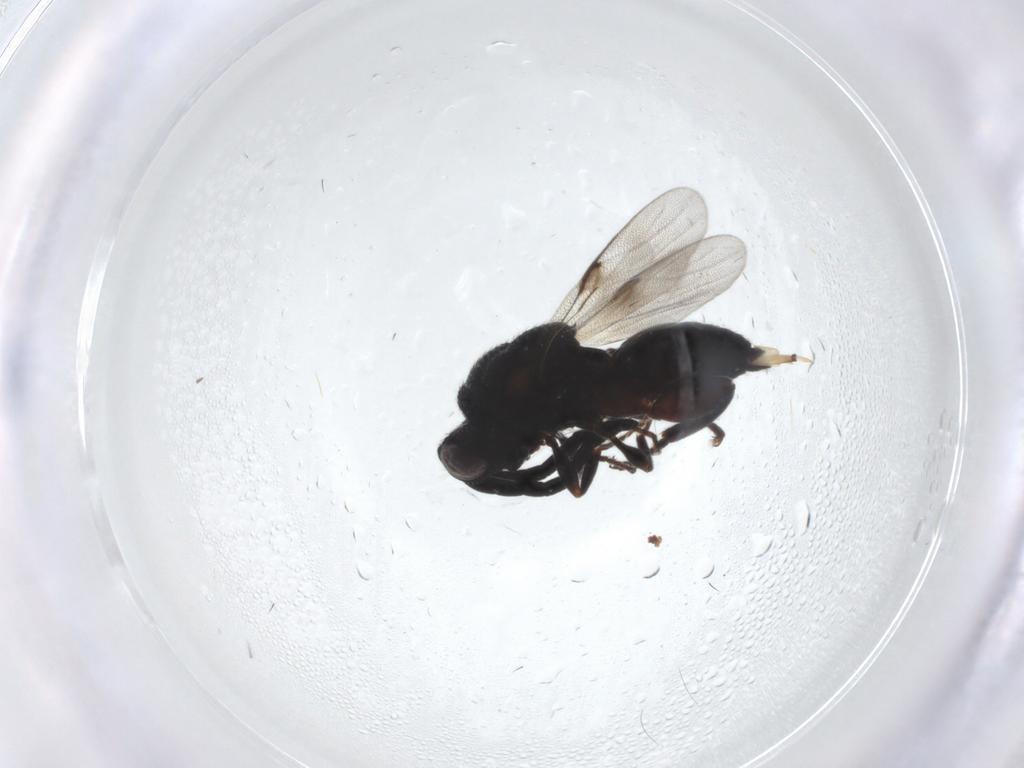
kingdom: Animalia
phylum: Arthropoda
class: Insecta
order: Hymenoptera
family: Chalcididae
